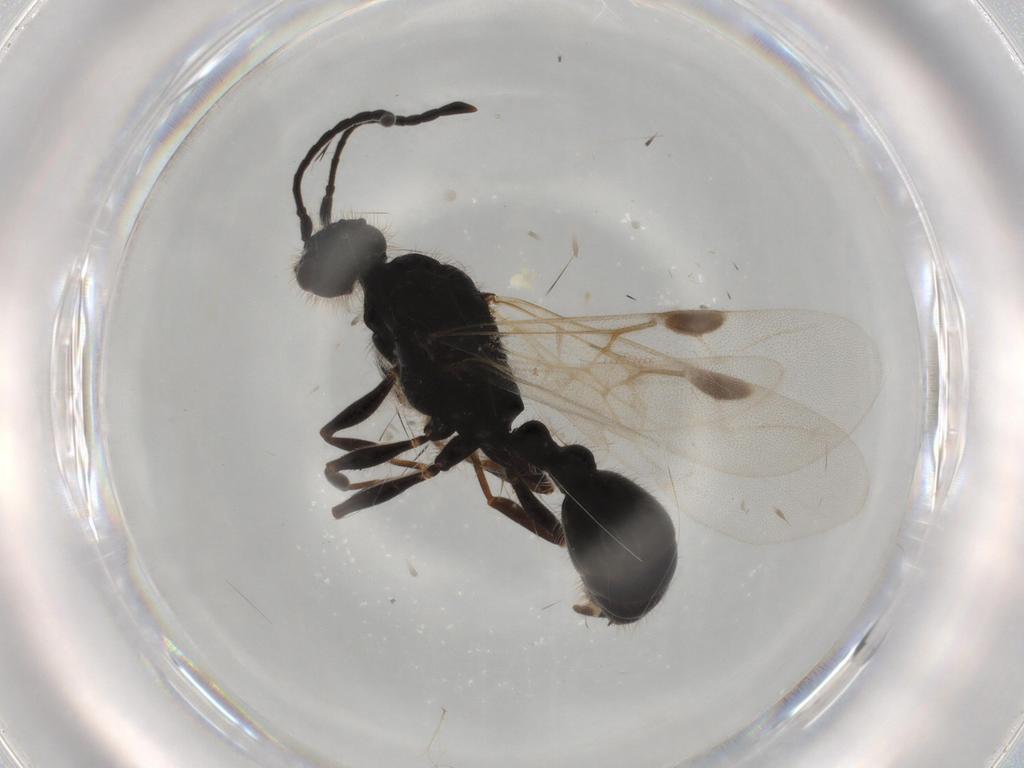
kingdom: Animalia
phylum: Arthropoda
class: Insecta
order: Hymenoptera
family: Formicidae
